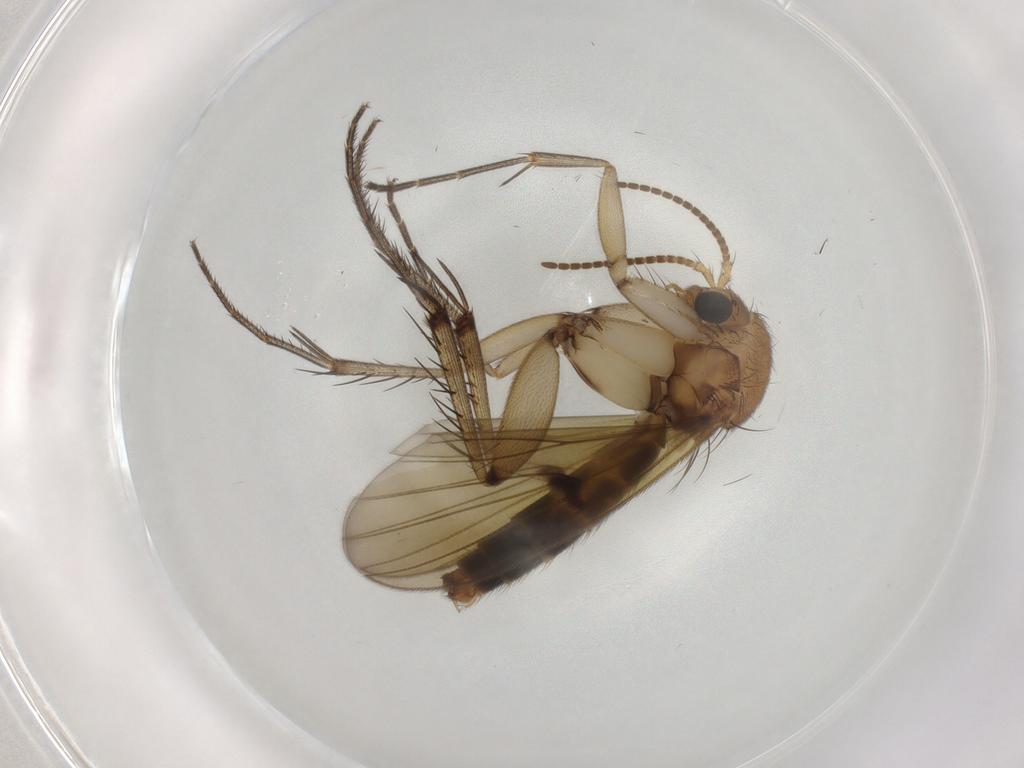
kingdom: Animalia
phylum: Arthropoda
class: Insecta
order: Diptera
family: Mycetophilidae
